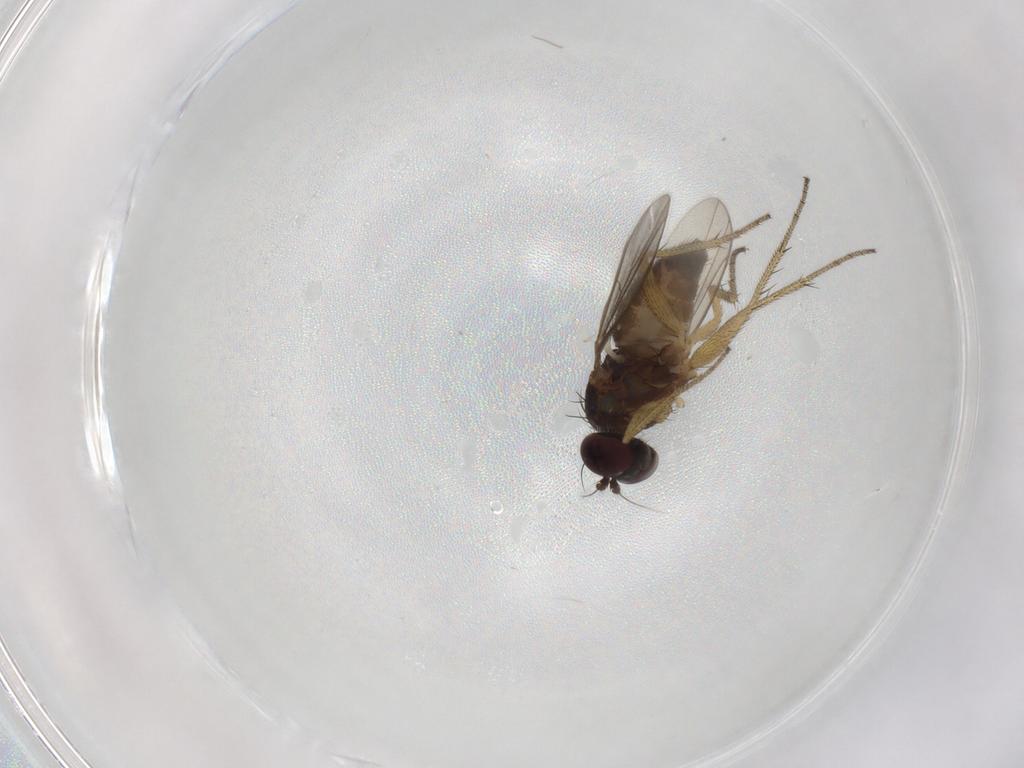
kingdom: Animalia
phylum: Arthropoda
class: Insecta
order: Diptera
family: Dolichopodidae
